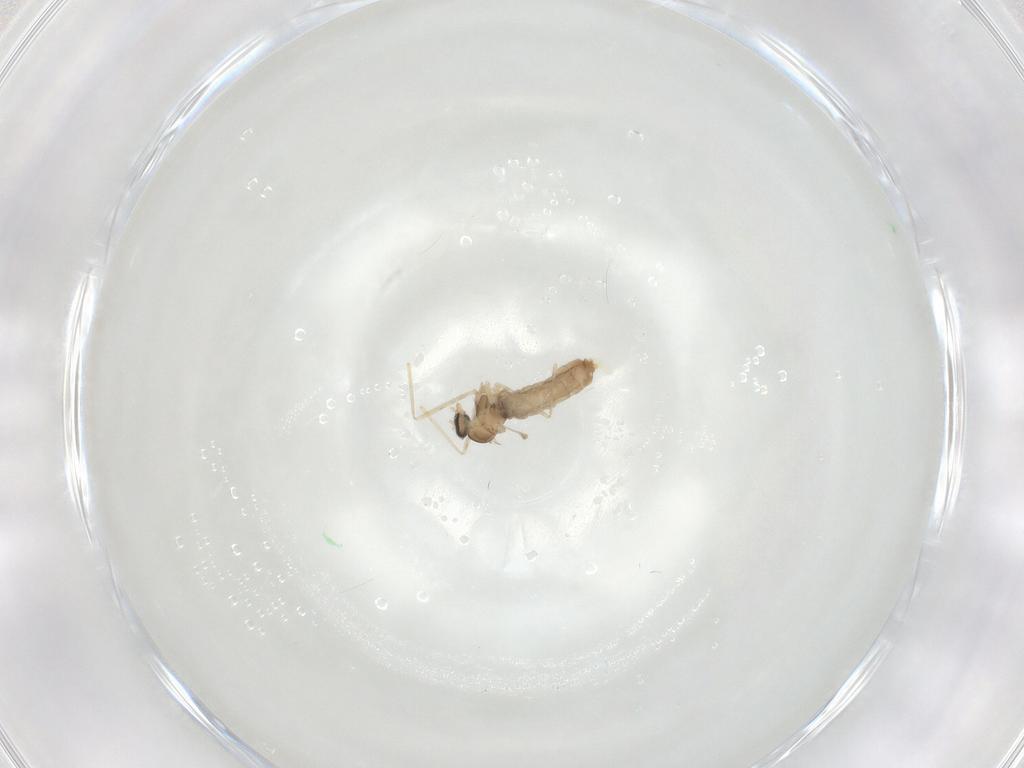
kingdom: Animalia
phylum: Arthropoda
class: Insecta
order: Diptera
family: Cecidomyiidae
